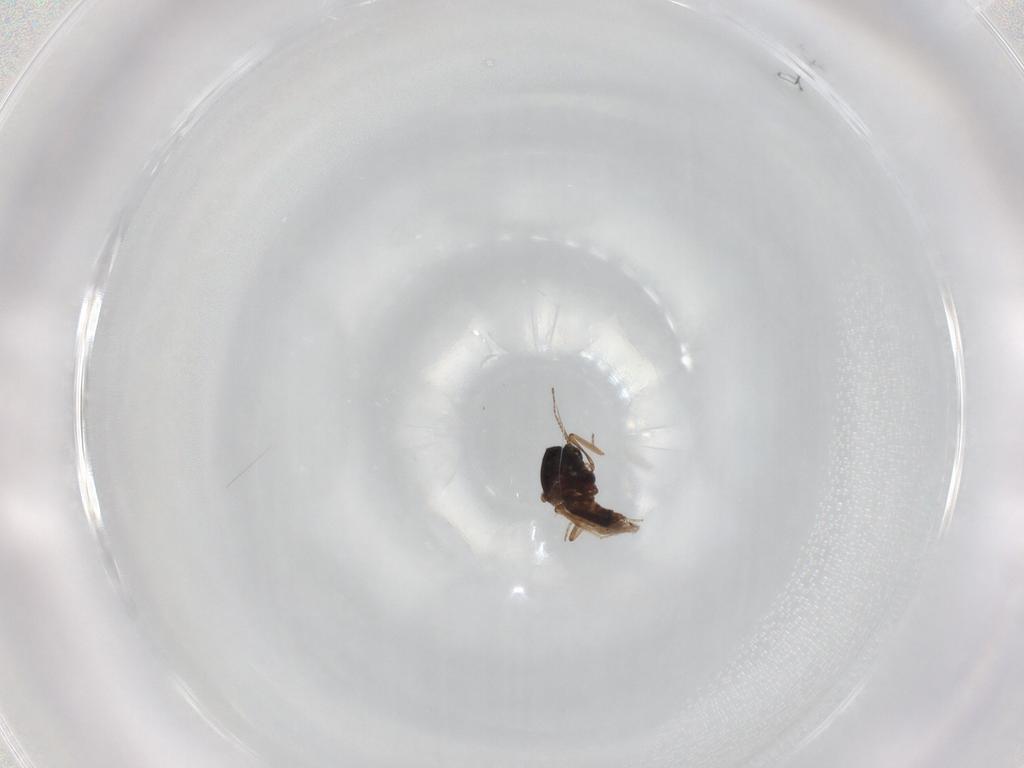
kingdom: Animalia
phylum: Arthropoda
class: Insecta
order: Diptera
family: Ceratopogonidae
